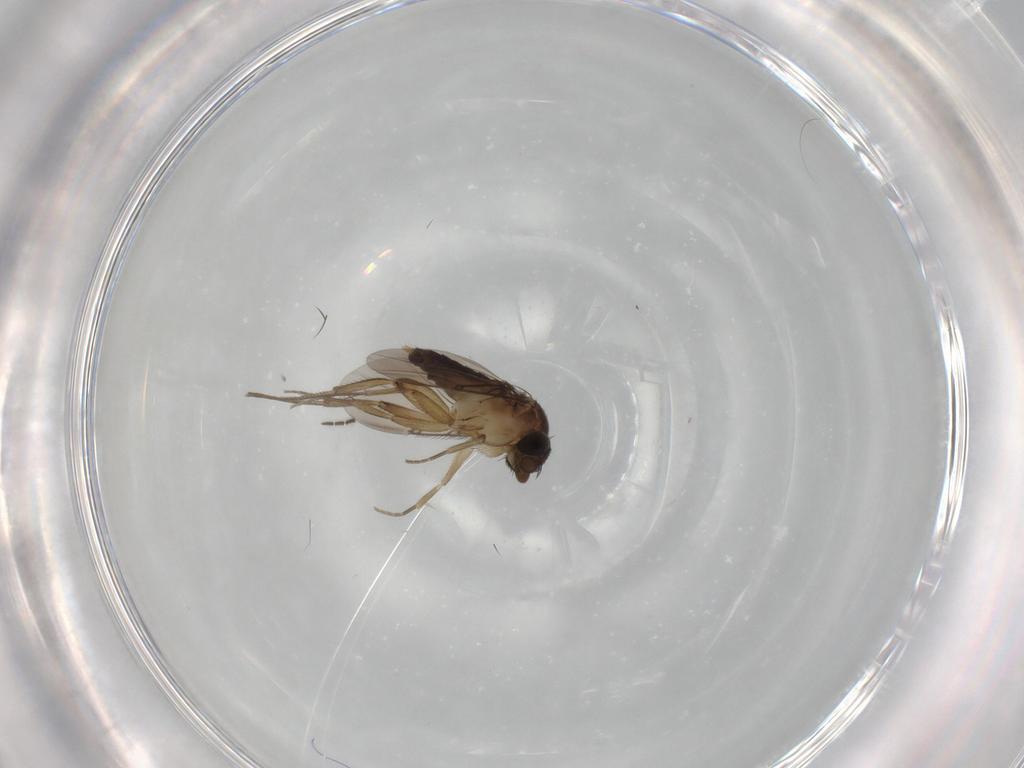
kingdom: Animalia
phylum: Arthropoda
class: Insecta
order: Diptera
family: Phoridae
